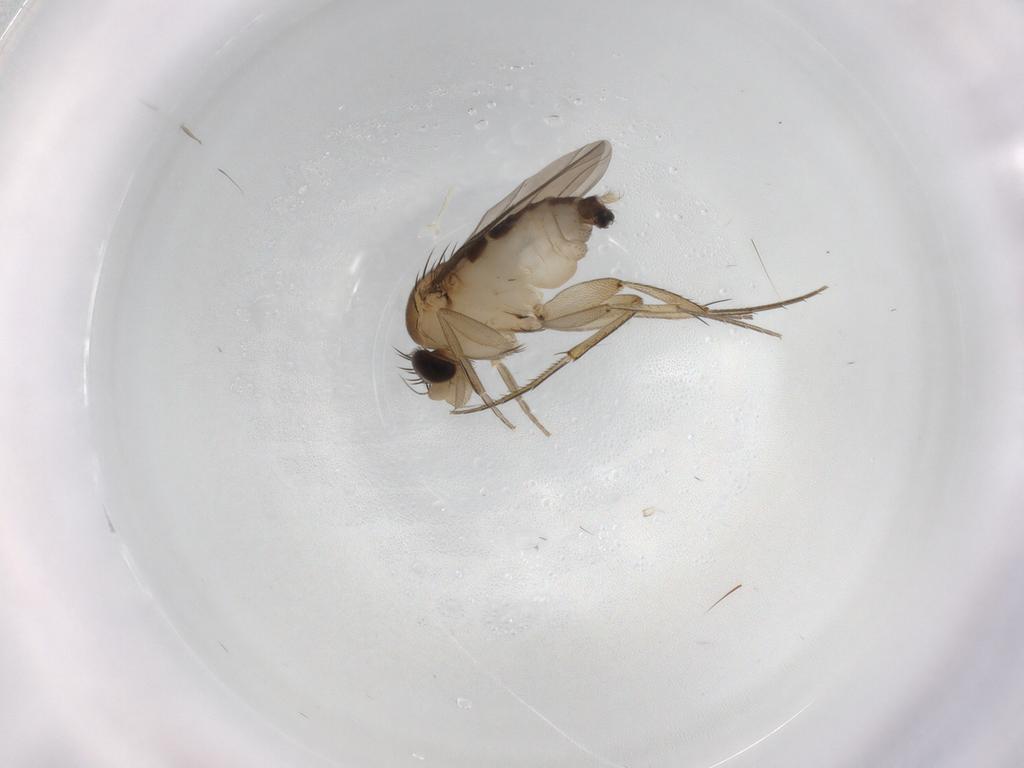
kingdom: Animalia
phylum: Arthropoda
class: Insecta
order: Diptera
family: Phoridae
